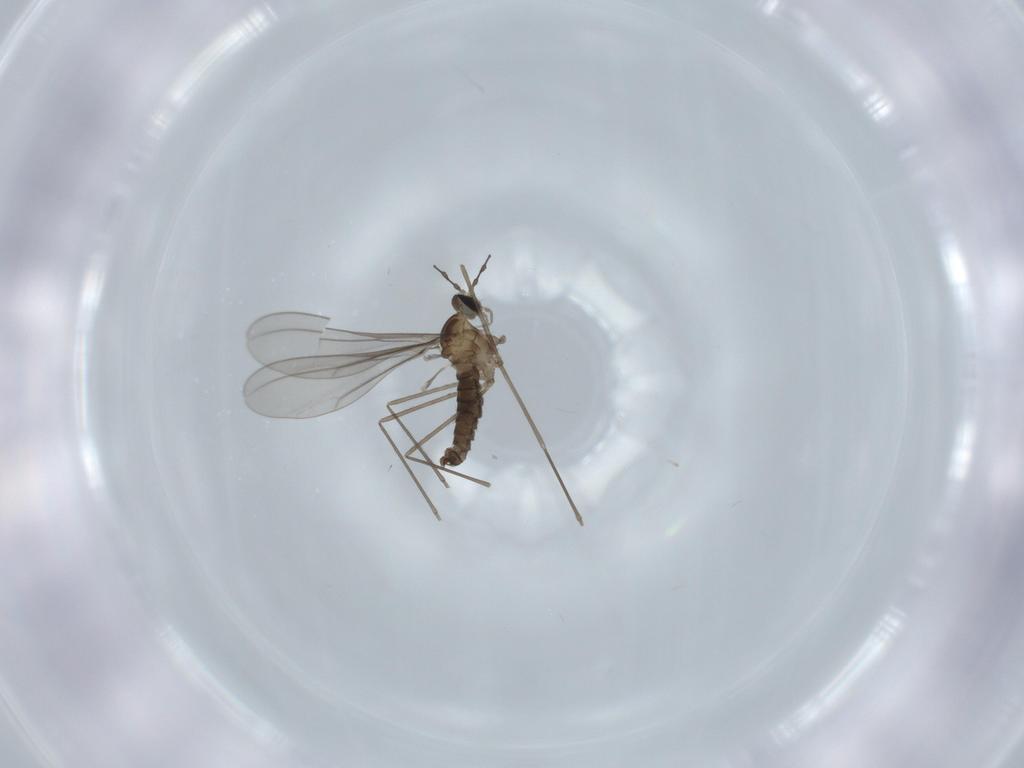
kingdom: Animalia
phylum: Arthropoda
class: Insecta
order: Diptera
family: Cecidomyiidae
